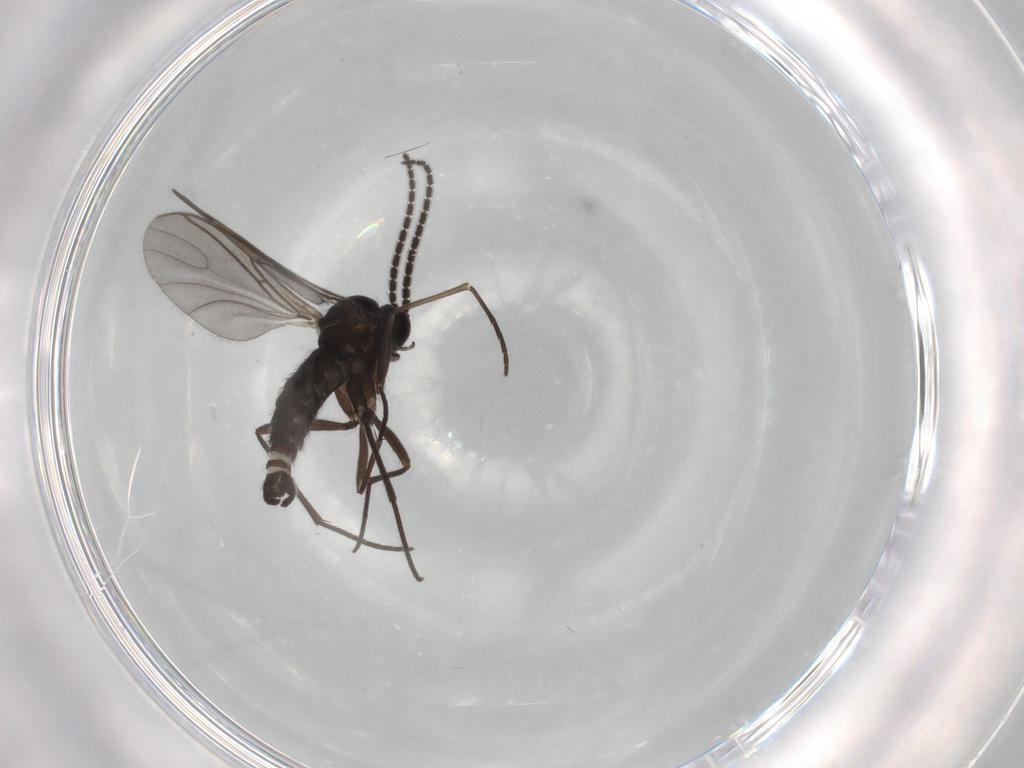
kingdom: Animalia
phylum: Arthropoda
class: Insecta
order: Diptera
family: Sciaridae
